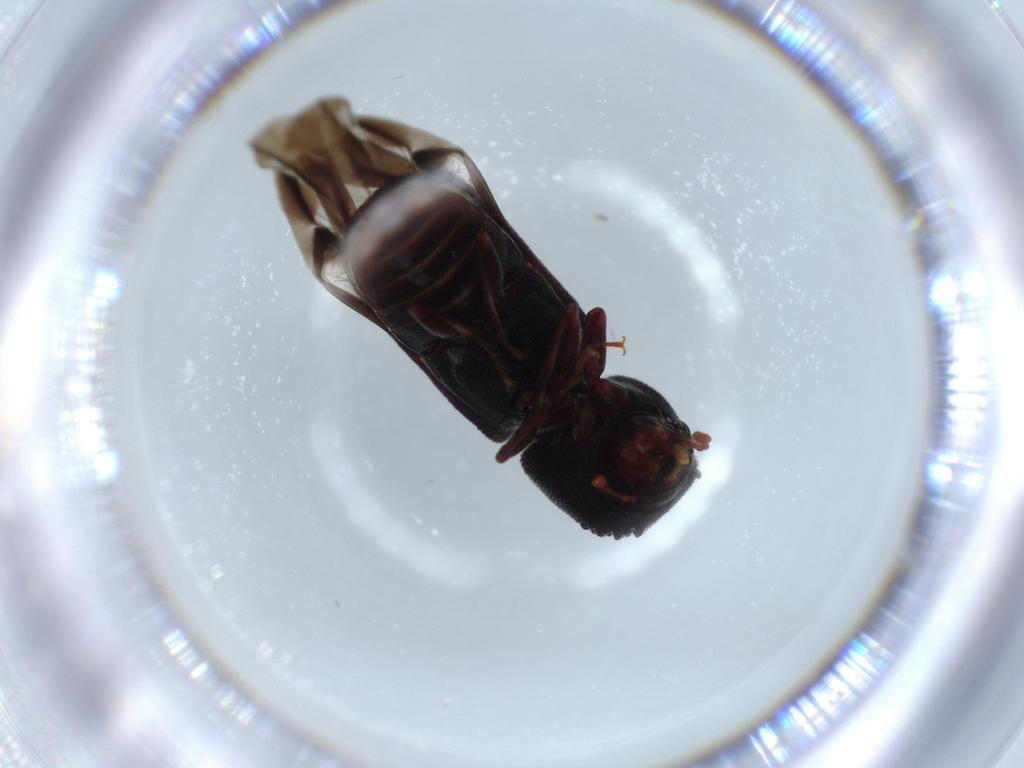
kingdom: Animalia
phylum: Arthropoda
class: Insecta
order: Coleoptera
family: Bostrichidae
